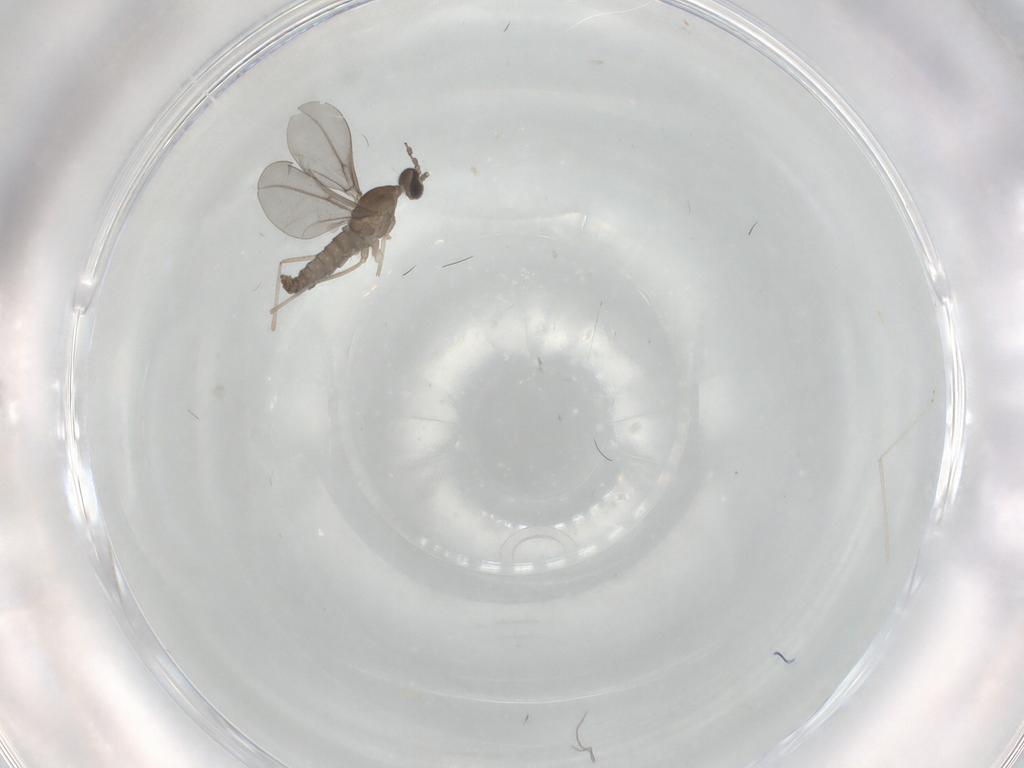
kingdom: Animalia
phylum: Arthropoda
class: Insecta
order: Diptera
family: Cecidomyiidae
